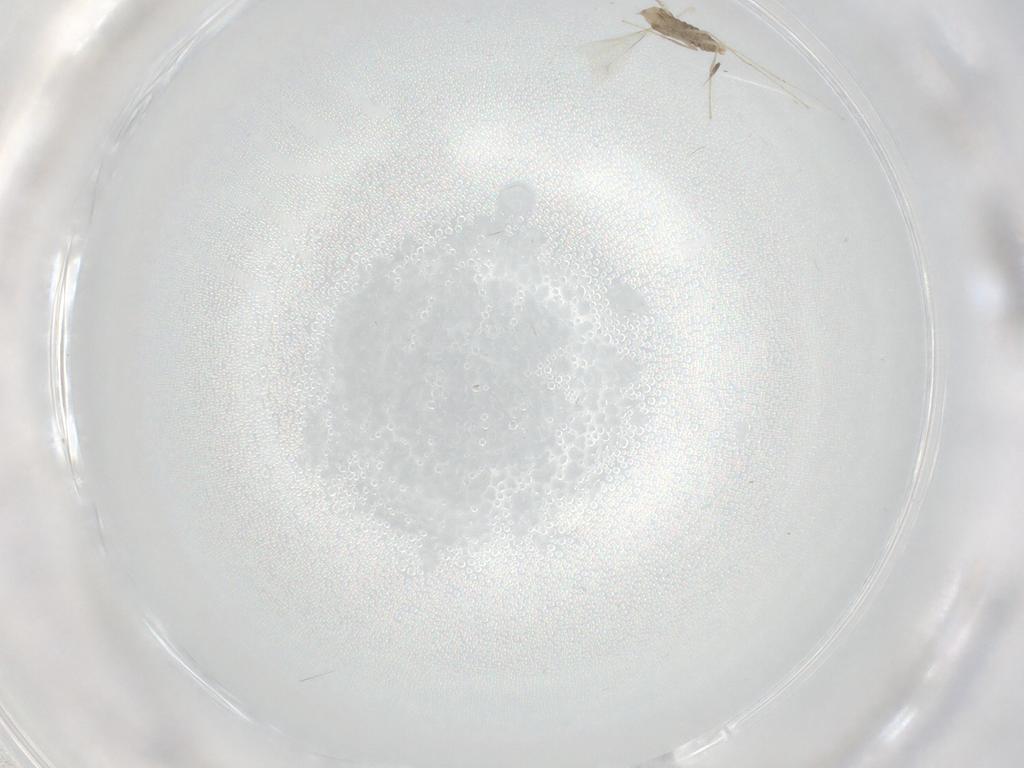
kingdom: Animalia
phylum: Arthropoda
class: Insecta
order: Diptera
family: Cecidomyiidae
